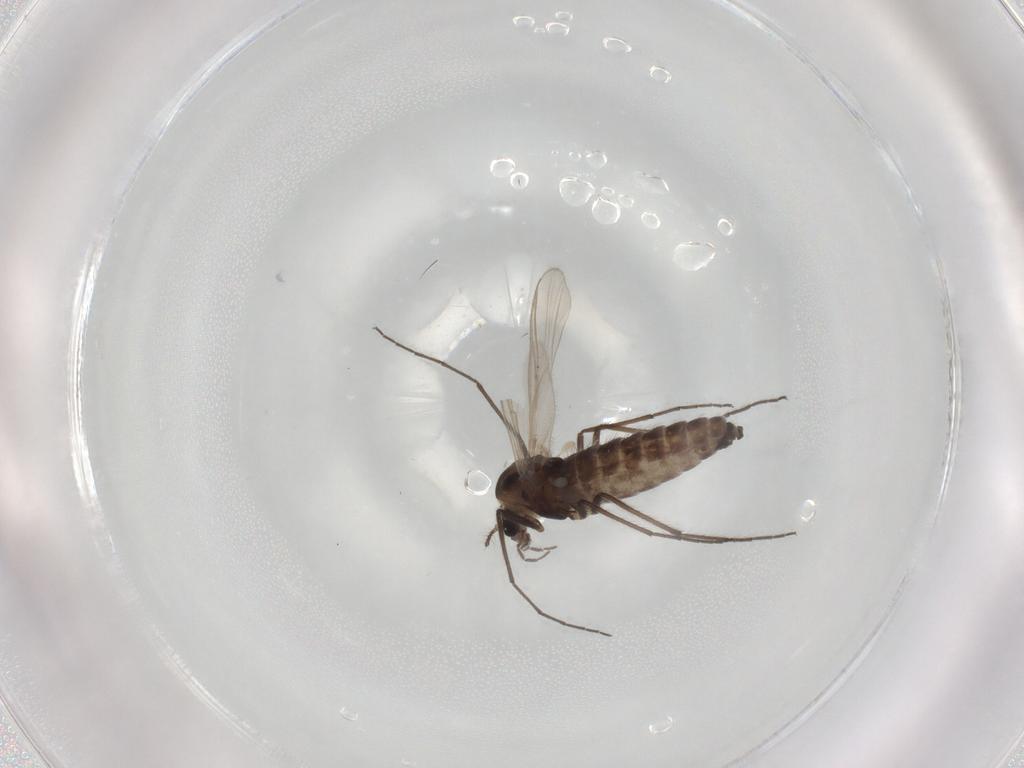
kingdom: Animalia
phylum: Arthropoda
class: Insecta
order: Diptera
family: Chironomidae
